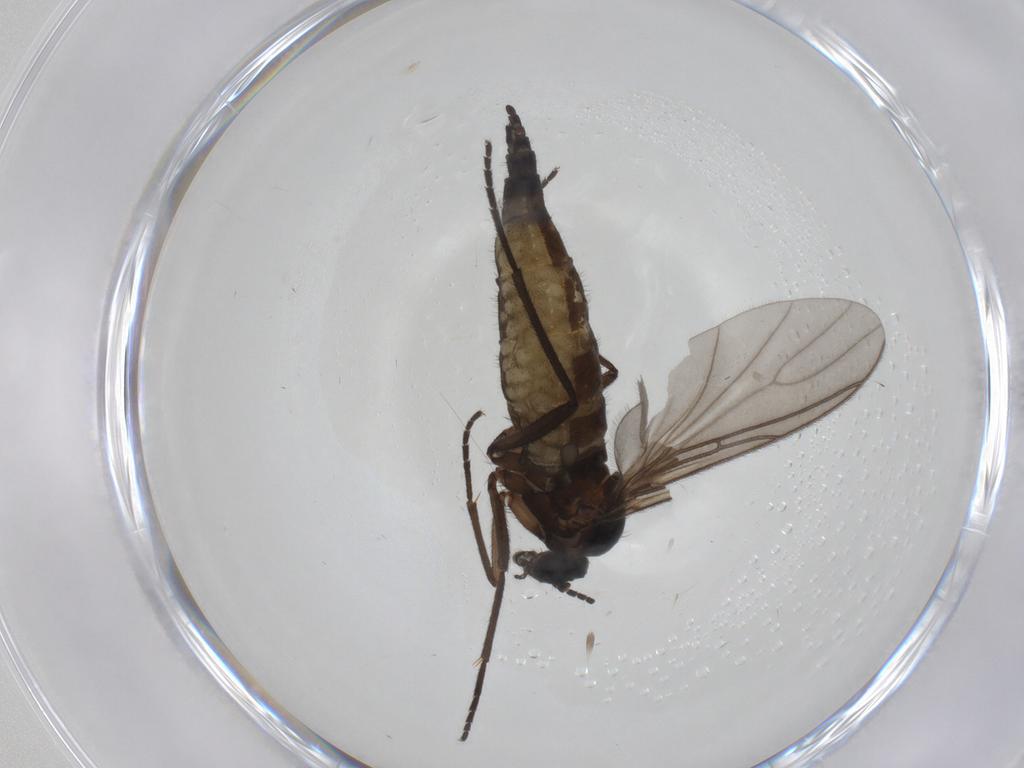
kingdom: Animalia
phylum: Arthropoda
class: Insecta
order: Diptera
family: Sciaridae
